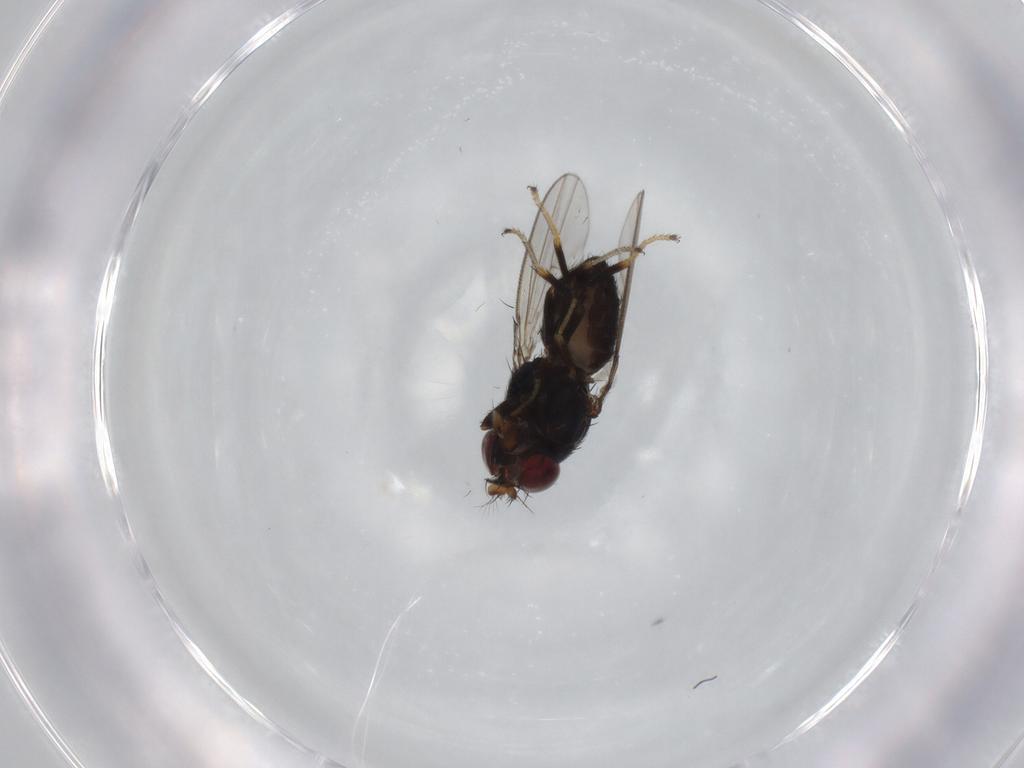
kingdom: Animalia
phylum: Arthropoda
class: Insecta
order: Diptera
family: Ephydridae
